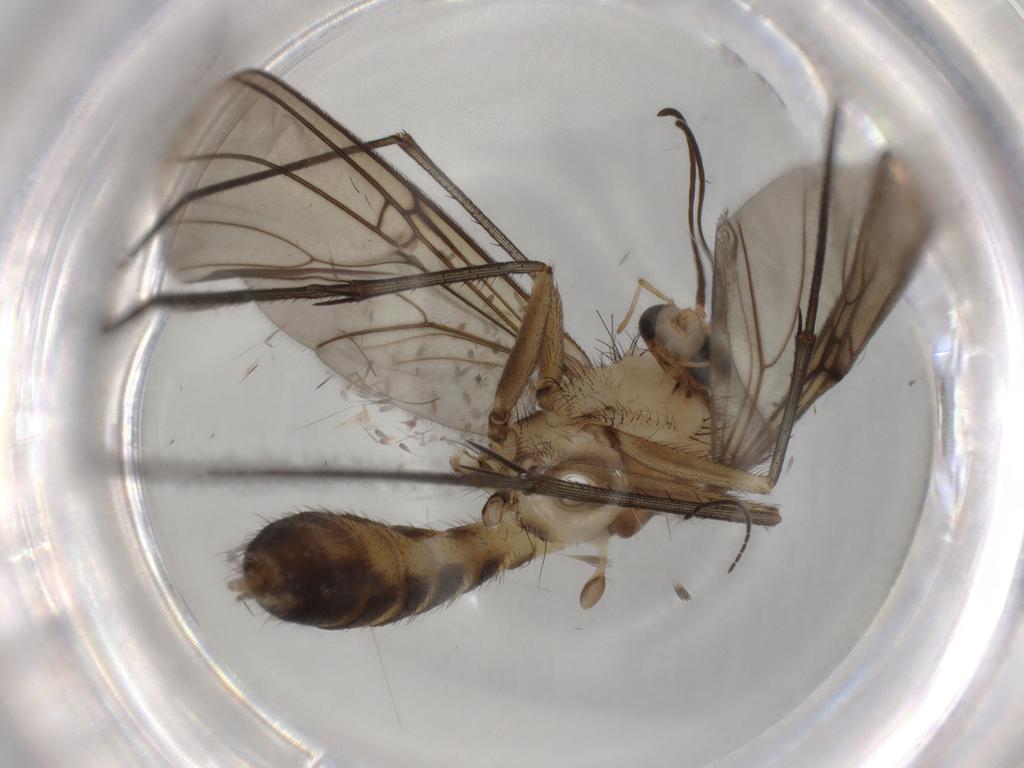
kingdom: Animalia
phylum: Arthropoda
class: Insecta
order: Diptera
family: Mycetophilidae
